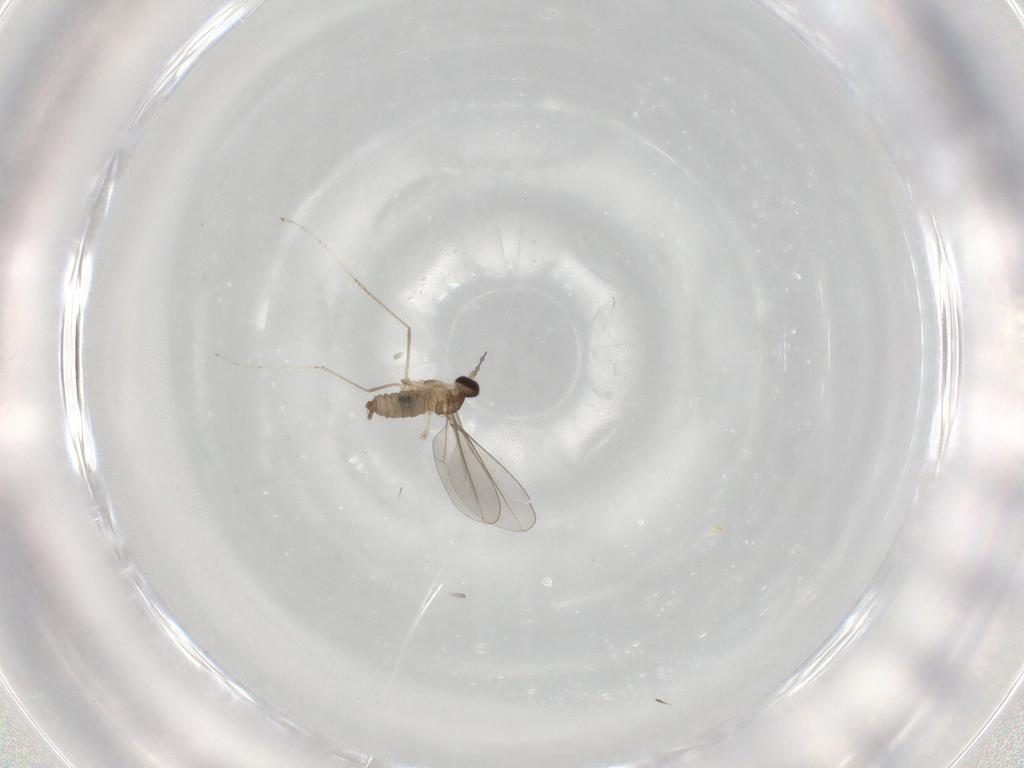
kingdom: Animalia
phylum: Arthropoda
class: Insecta
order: Diptera
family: Cecidomyiidae
